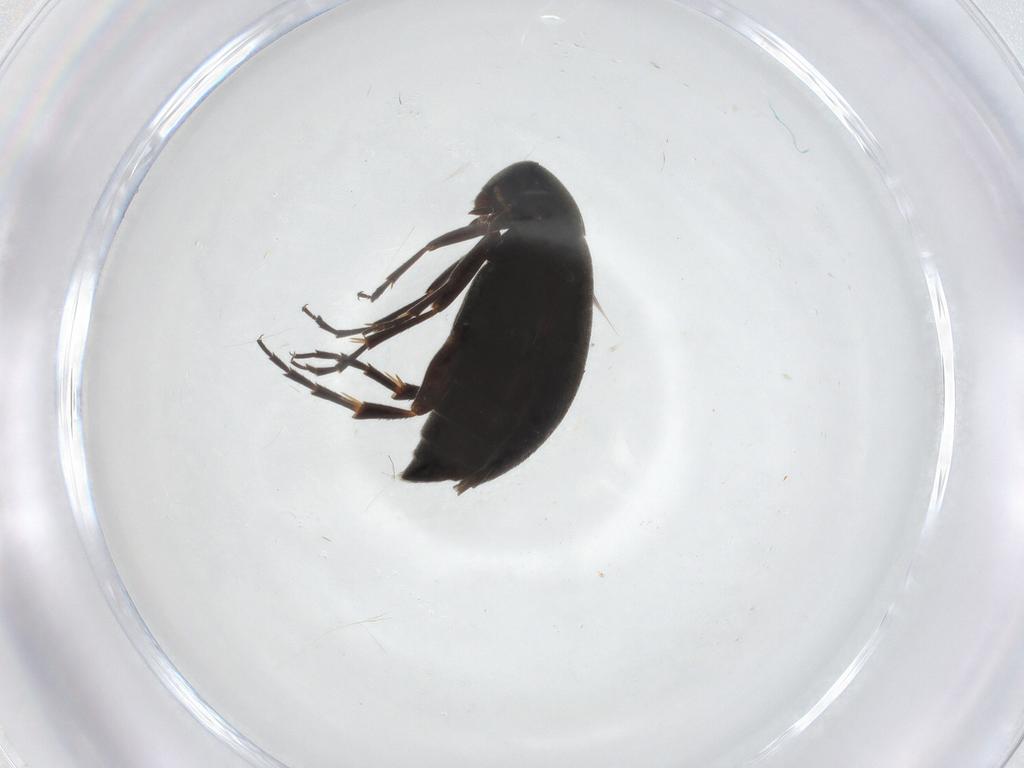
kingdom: Animalia
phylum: Arthropoda
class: Insecta
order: Coleoptera
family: Scraptiidae
